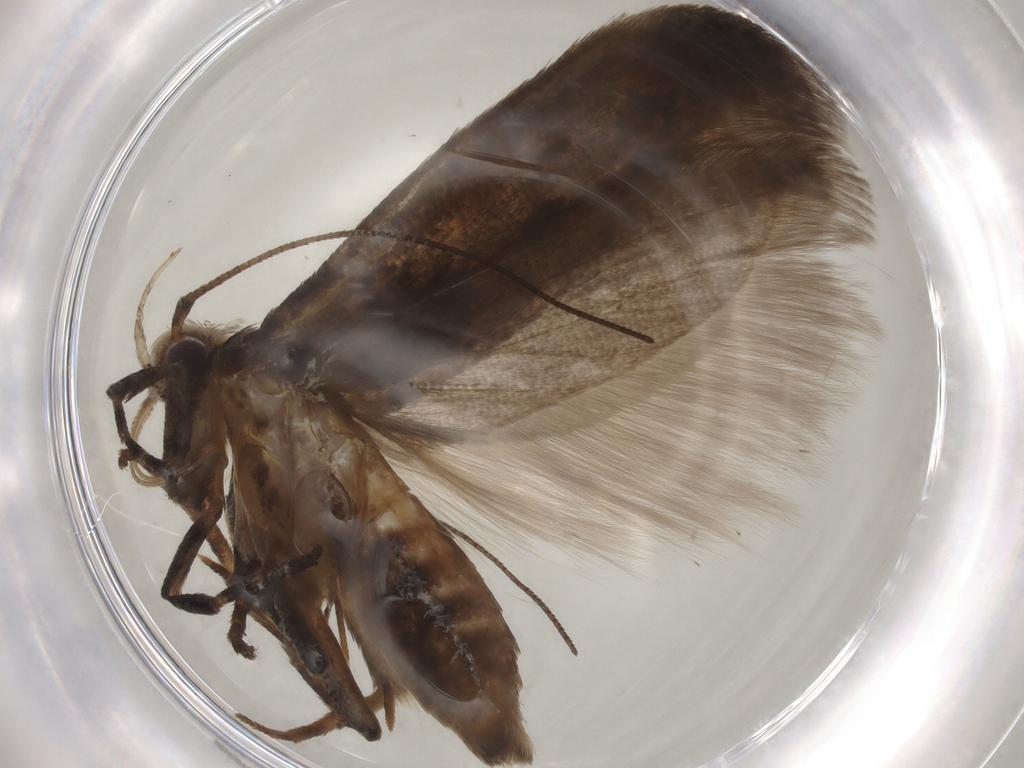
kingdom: Animalia
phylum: Arthropoda
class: Insecta
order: Lepidoptera
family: Gelechiidae
